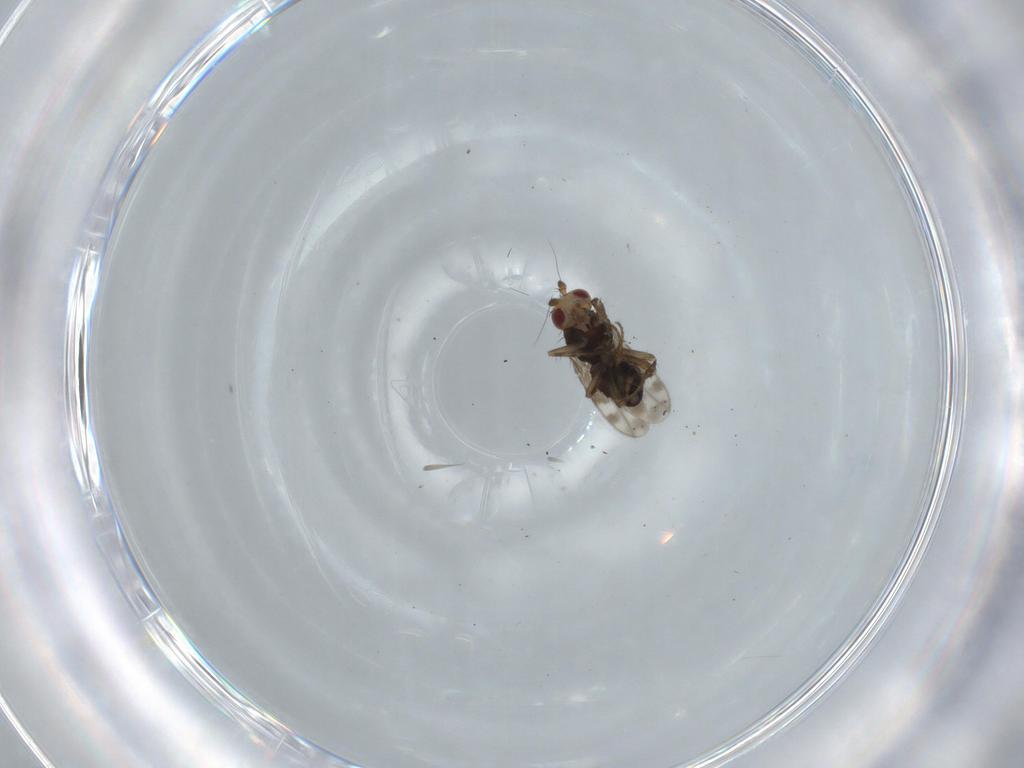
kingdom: Animalia
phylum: Arthropoda
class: Insecta
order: Diptera
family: Sphaeroceridae
